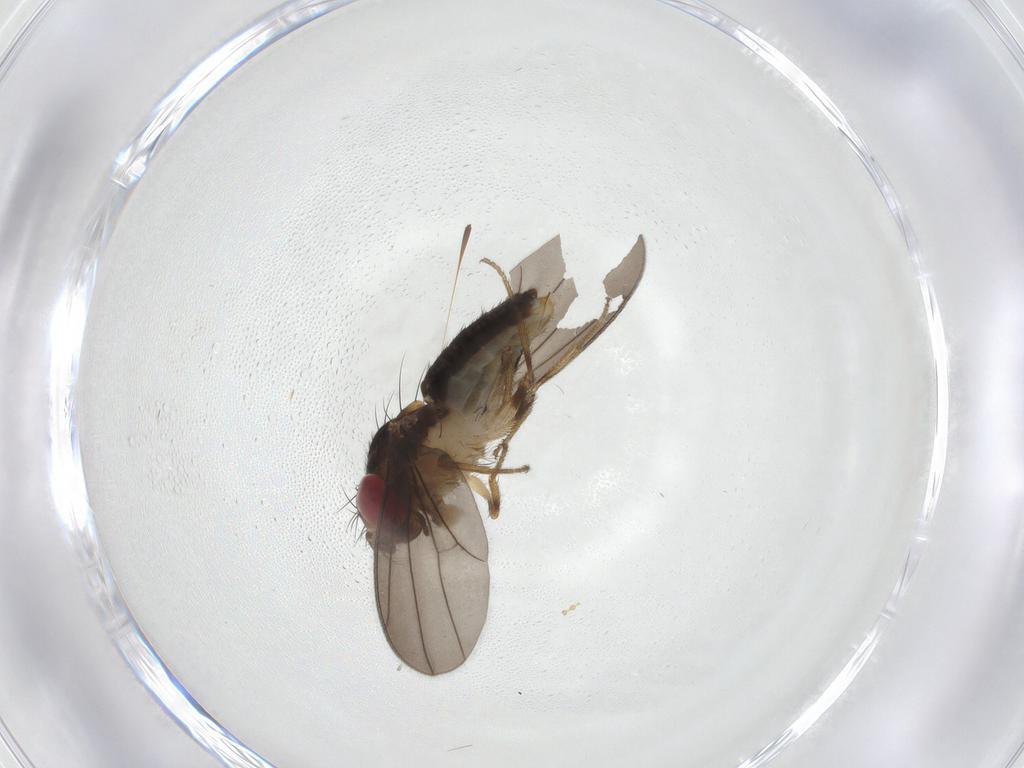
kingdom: Animalia
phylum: Arthropoda
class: Insecta
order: Diptera
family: Drosophilidae
